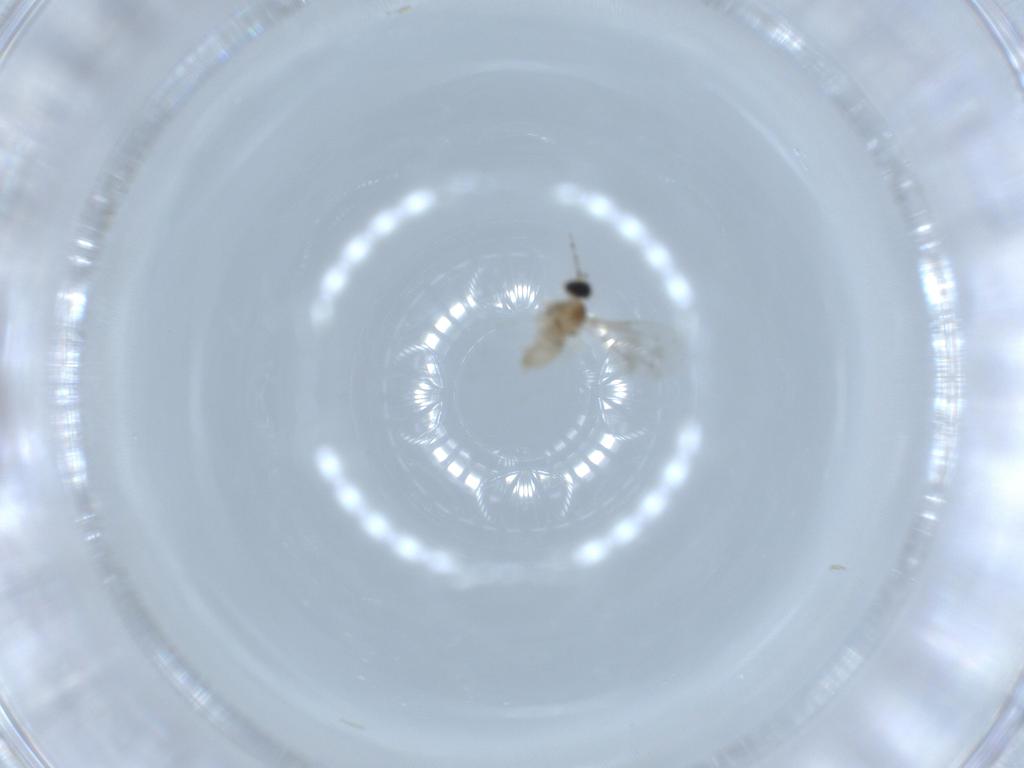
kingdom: Animalia
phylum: Arthropoda
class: Insecta
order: Diptera
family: Cecidomyiidae
